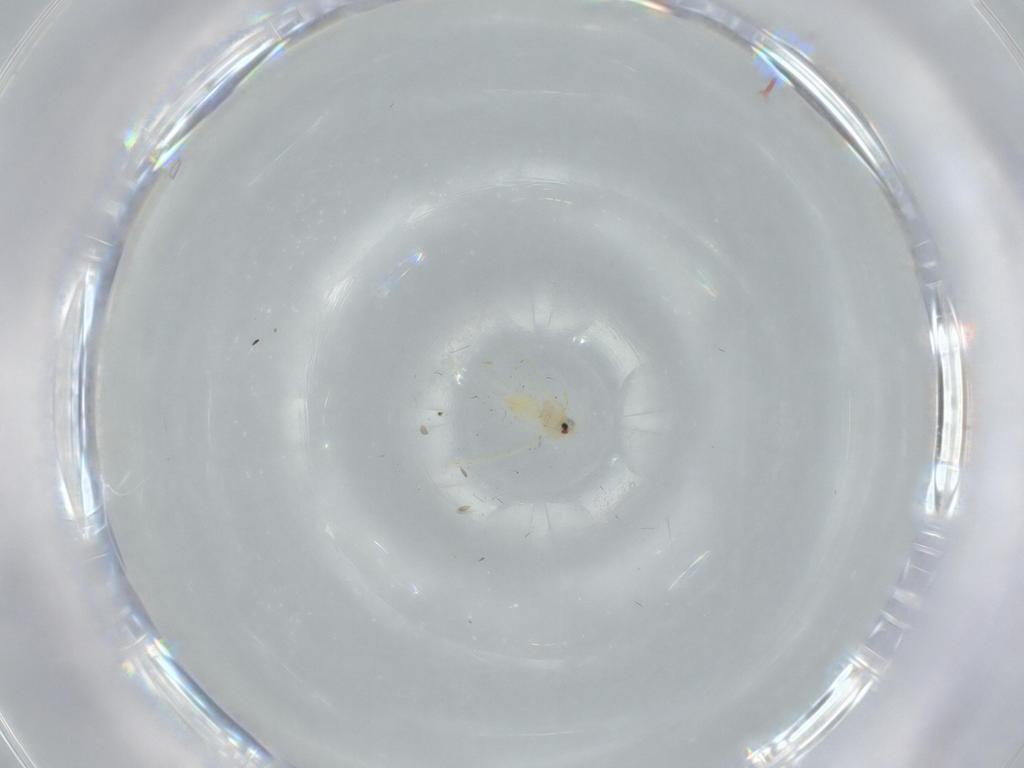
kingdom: Animalia
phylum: Arthropoda
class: Insecta
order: Hemiptera
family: Aleyrodidae
